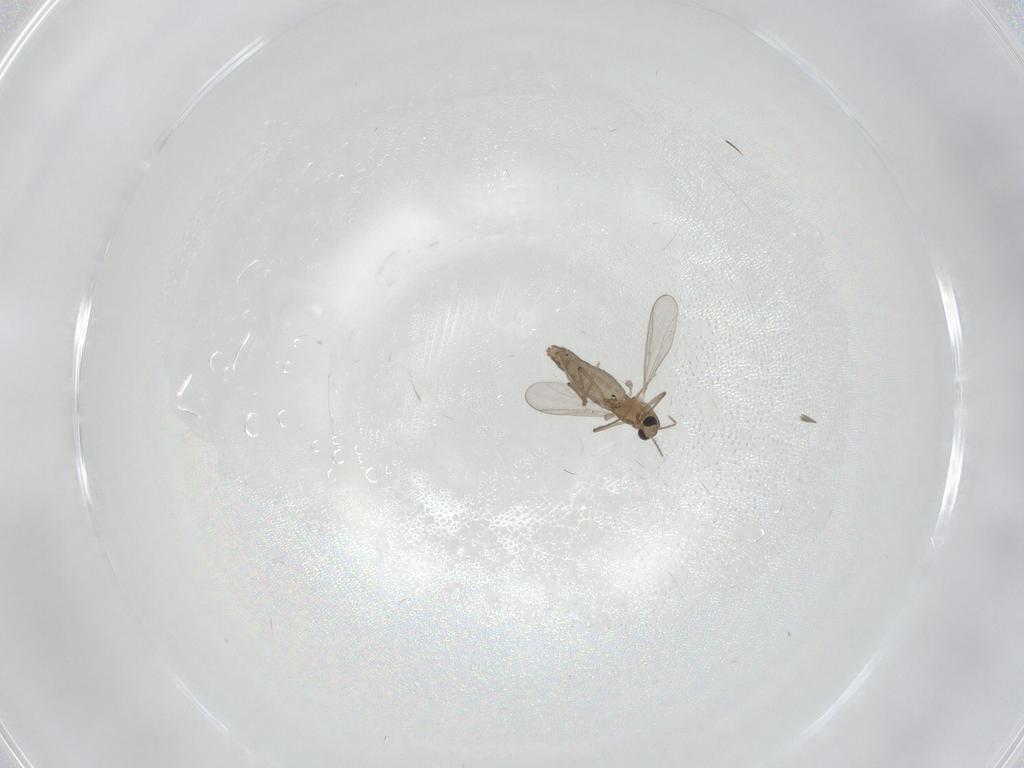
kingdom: Animalia
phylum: Arthropoda
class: Insecta
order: Diptera
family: Chironomidae
